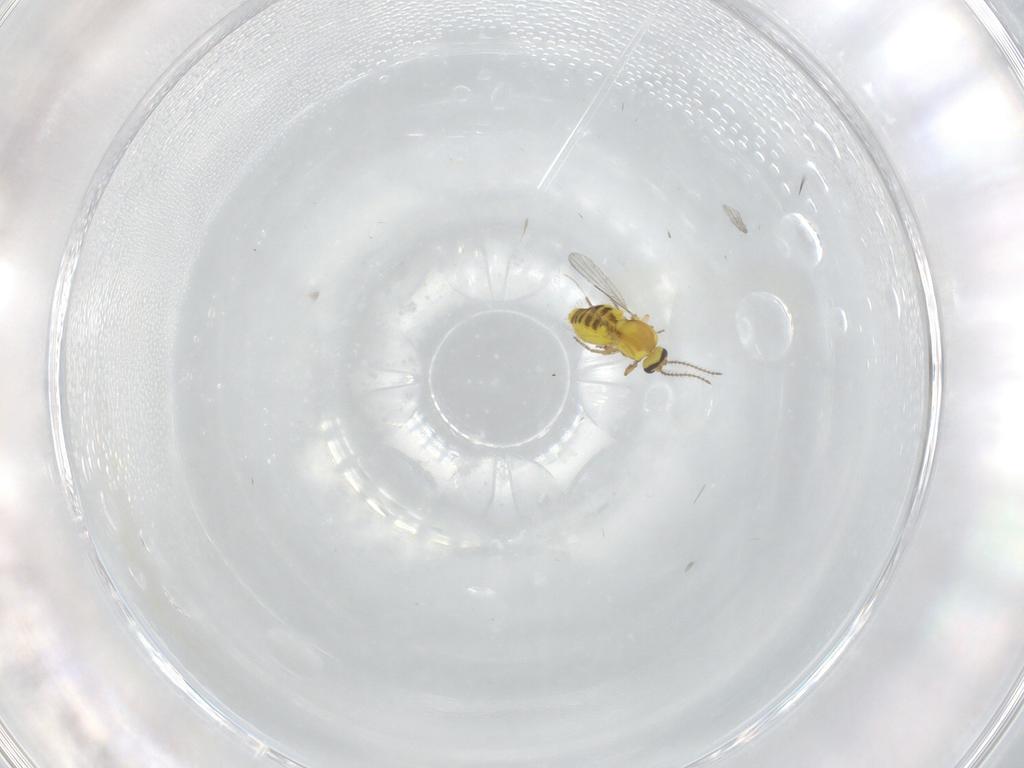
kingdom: Animalia
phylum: Arthropoda
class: Insecta
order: Diptera
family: Ceratopogonidae
